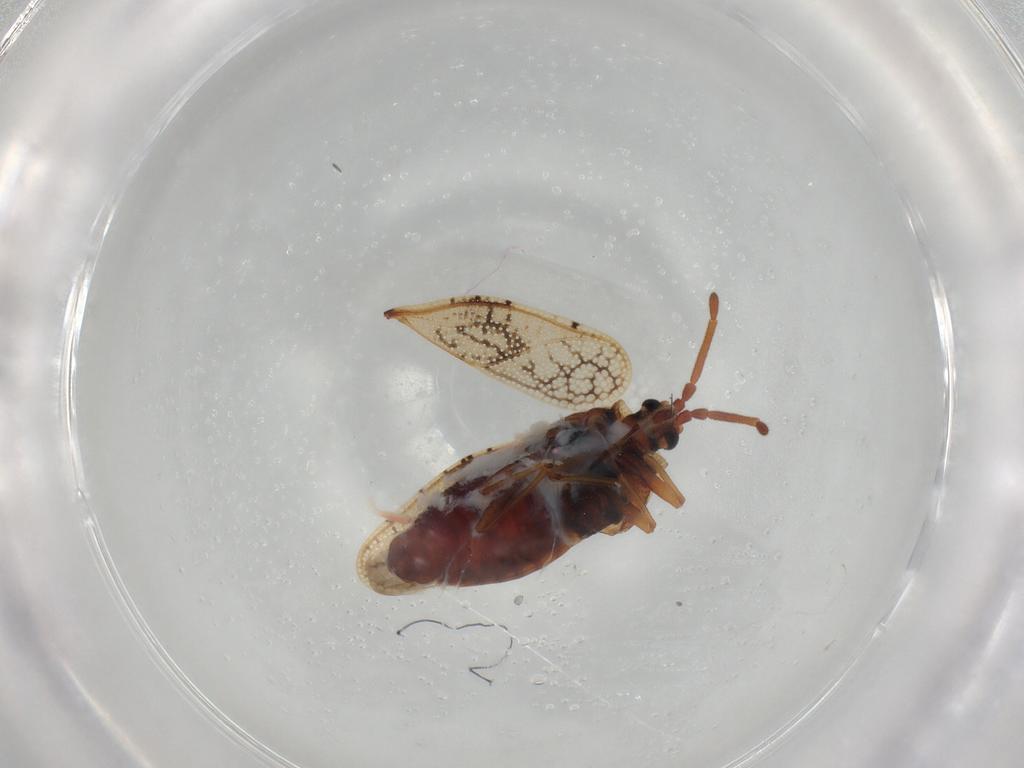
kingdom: Animalia
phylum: Arthropoda
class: Insecta
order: Hemiptera
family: Tingidae
